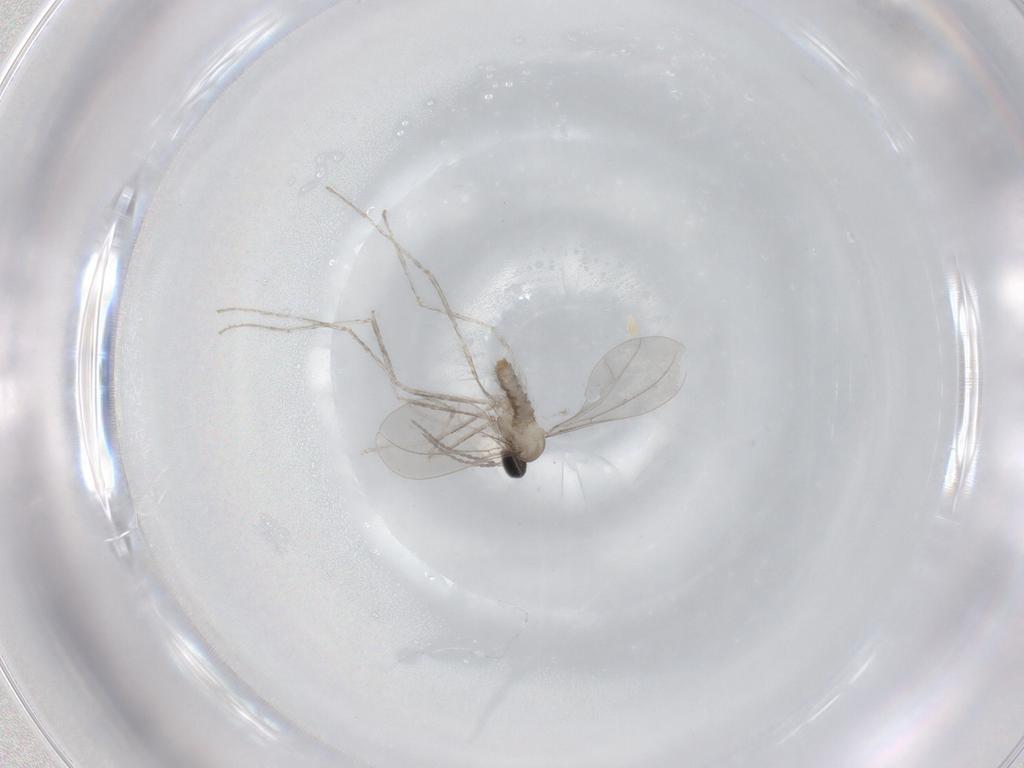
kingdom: Animalia
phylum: Arthropoda
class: Insecta
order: Diptera
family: Cecidomyiidae
